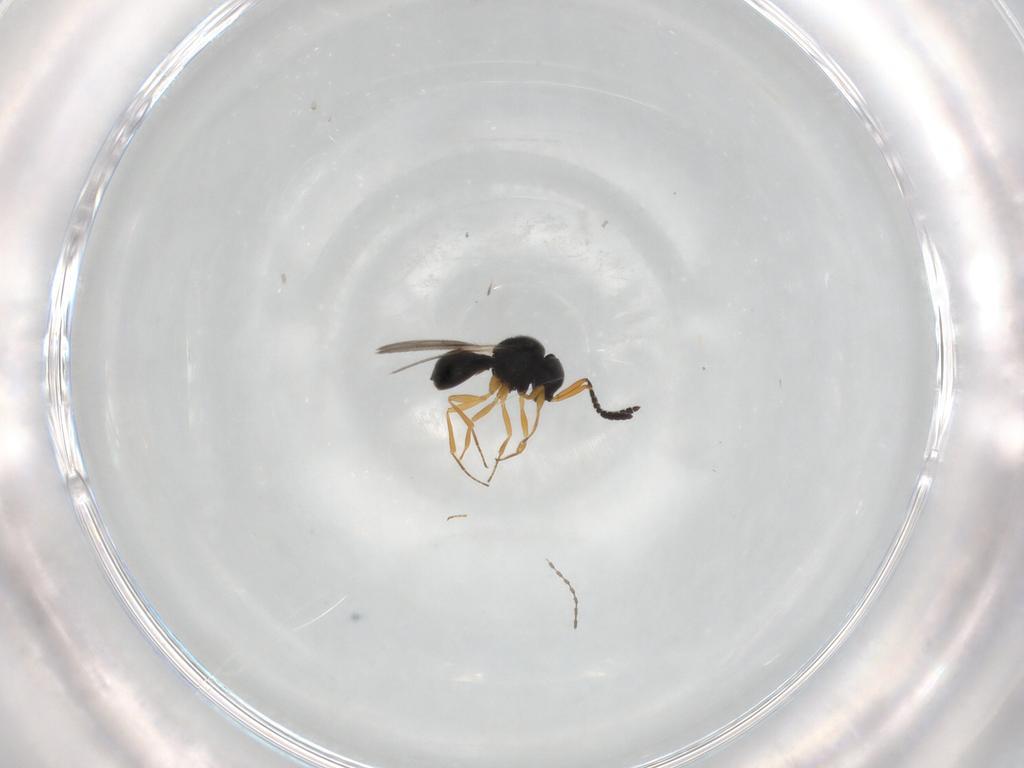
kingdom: Animalia
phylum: Arthropoda
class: Insecta
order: Hymenoptera
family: Scelionidae
